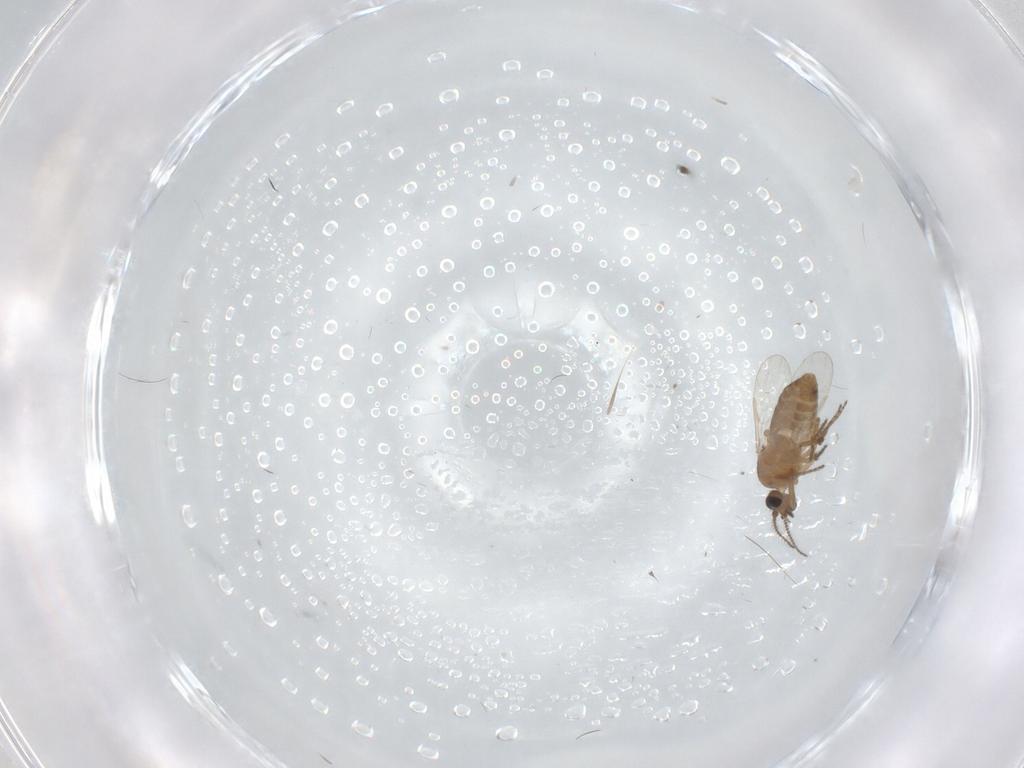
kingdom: Animalia
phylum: Arthropoda
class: Insecta
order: Diptera
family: Ceratopogonidae
